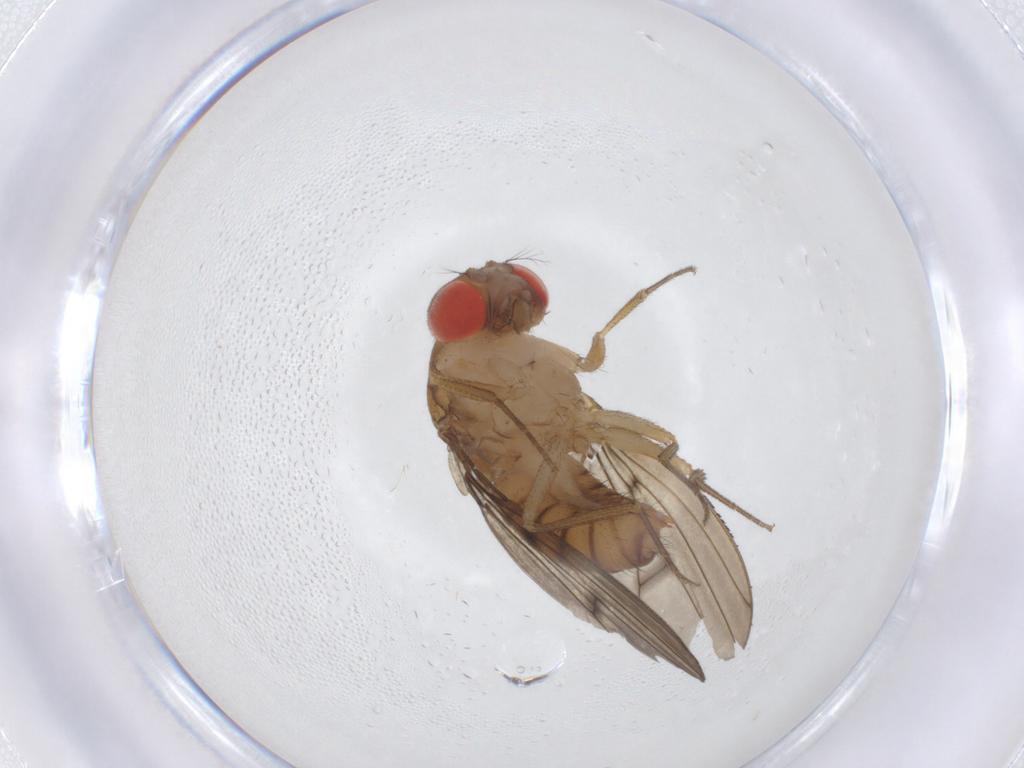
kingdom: Animalia
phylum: Arthropoda
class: Insecta
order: Diptera
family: Drosophilidae
